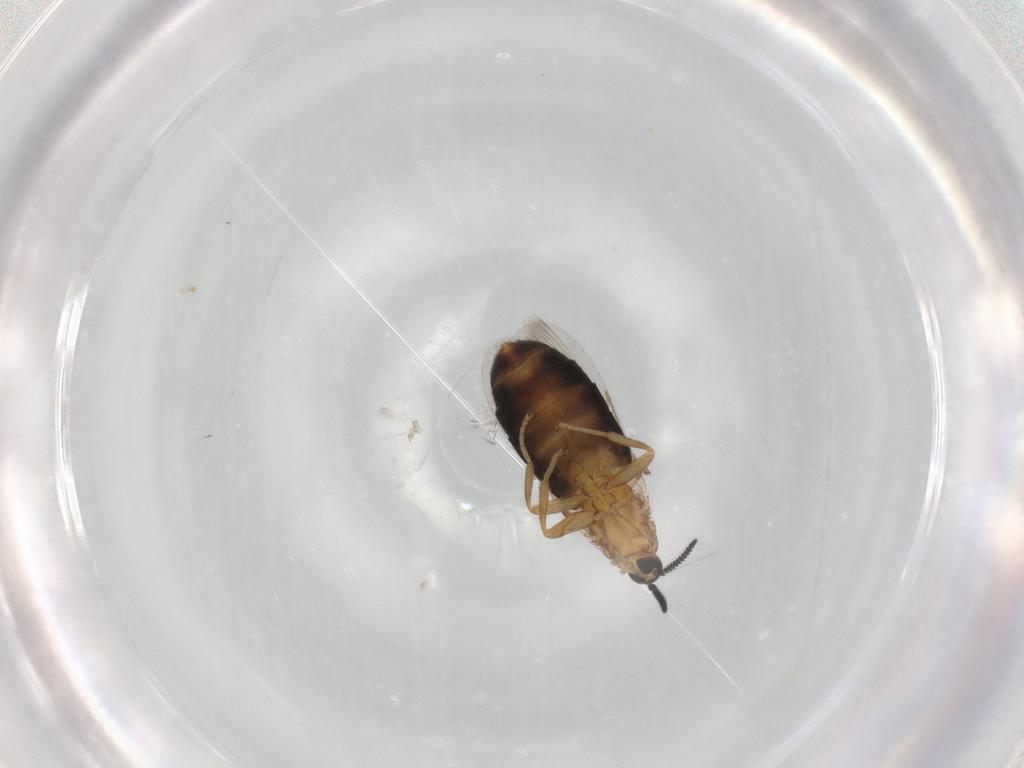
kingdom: Animalia
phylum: Arthropoda
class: Insecta
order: Diptera
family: Scatopsidae
